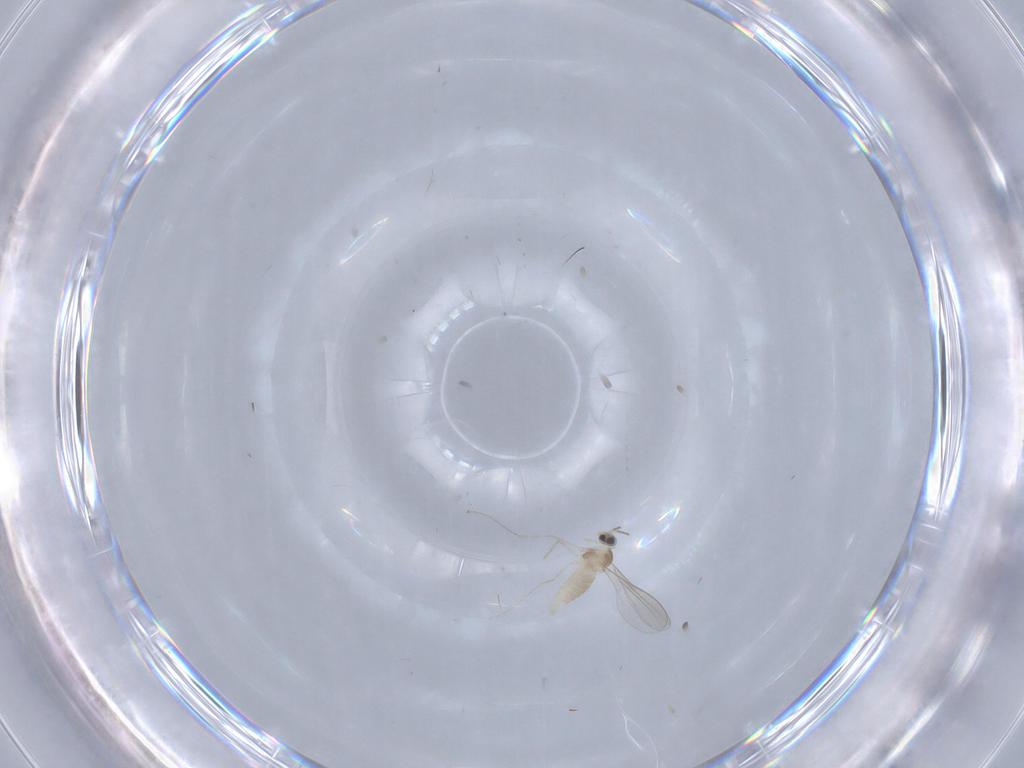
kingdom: Animalia
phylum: Arthropoda
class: Insecta
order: Diptera
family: Cecidomyiidae
